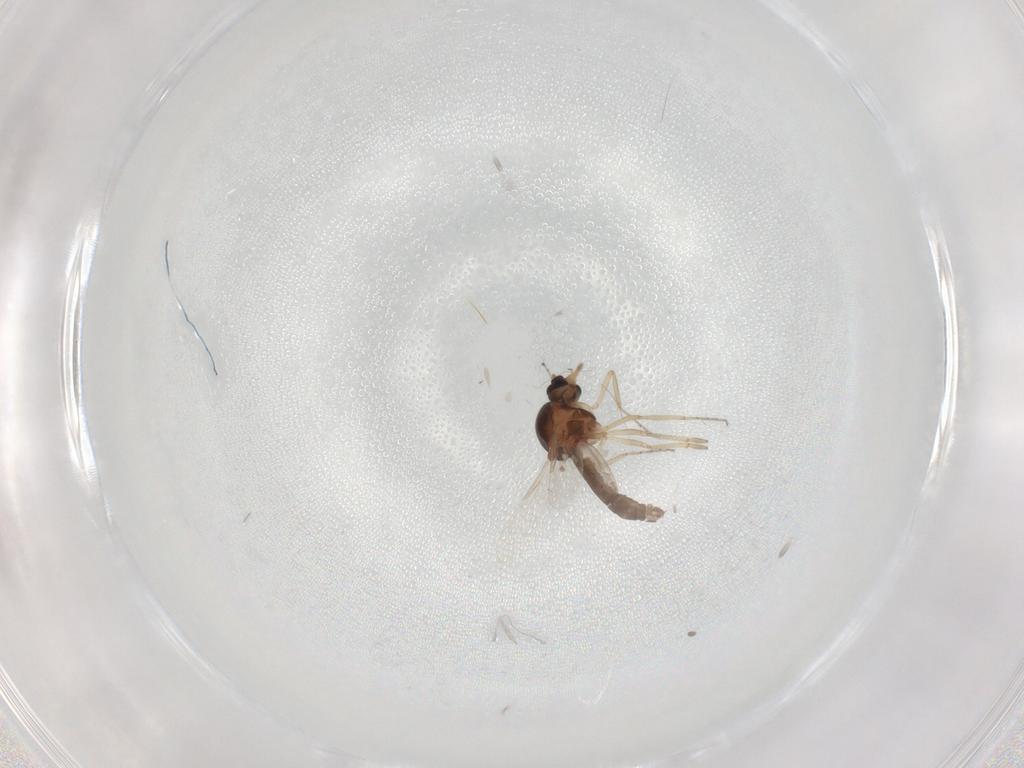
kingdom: Animalia
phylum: Arthropoda
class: Insecta
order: Diptera
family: Ceratopogonidae
